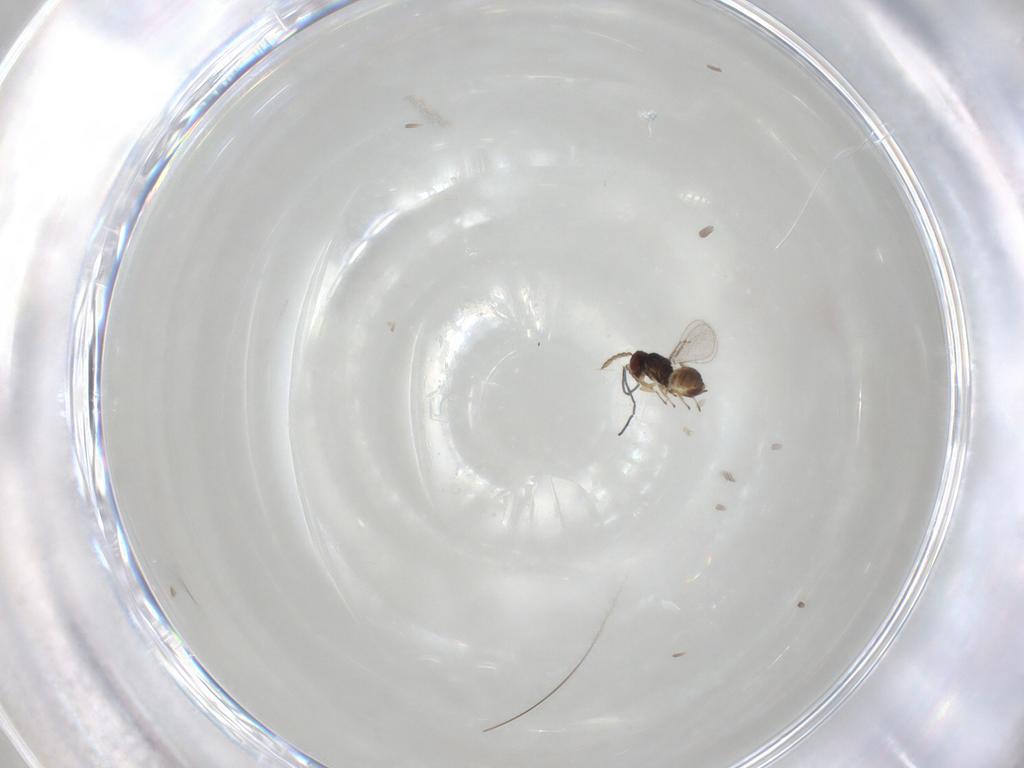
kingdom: Animalia
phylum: Arthropoda
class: Insecta
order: Hymenoptera
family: Eulophidae
